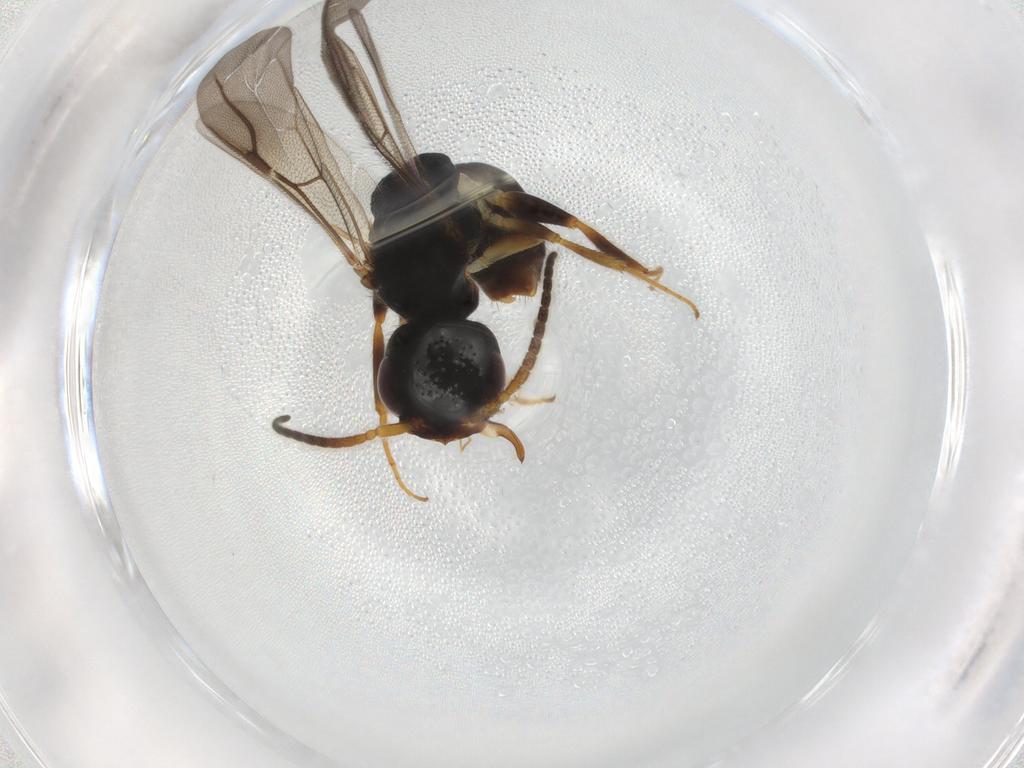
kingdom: Animalia
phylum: Arthropoda
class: Insecta
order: Hymenoptera
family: Bethylidae
